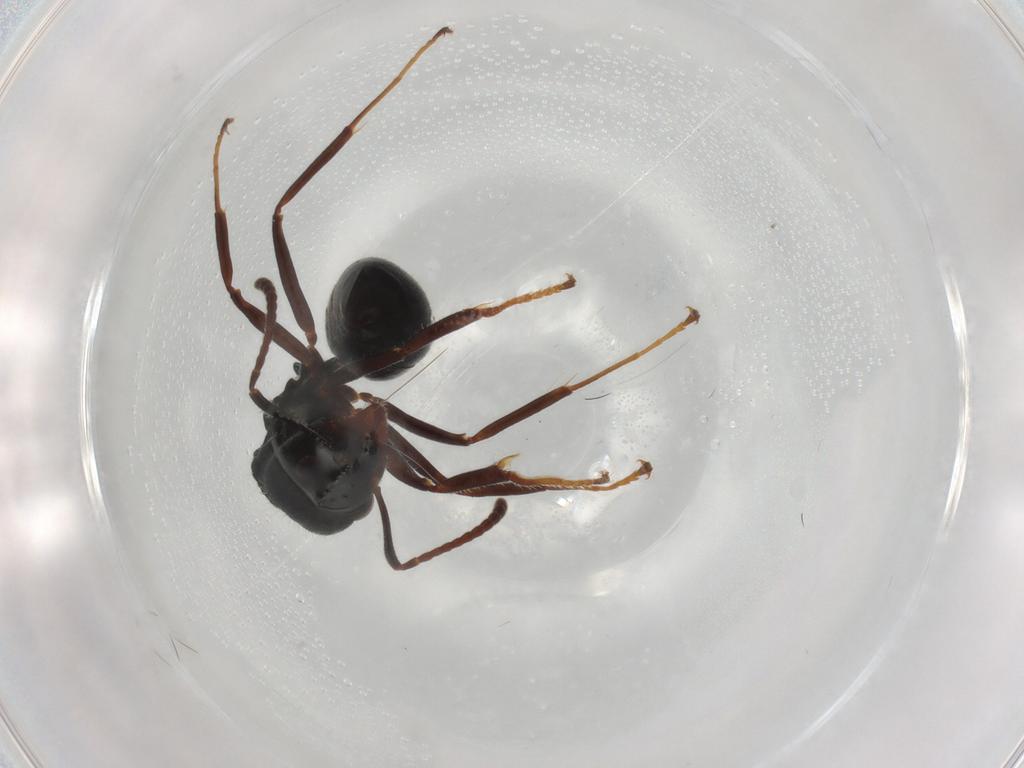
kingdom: Animalia
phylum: Arthropoda
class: Insecta
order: Hymenoptera
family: Formicidae
